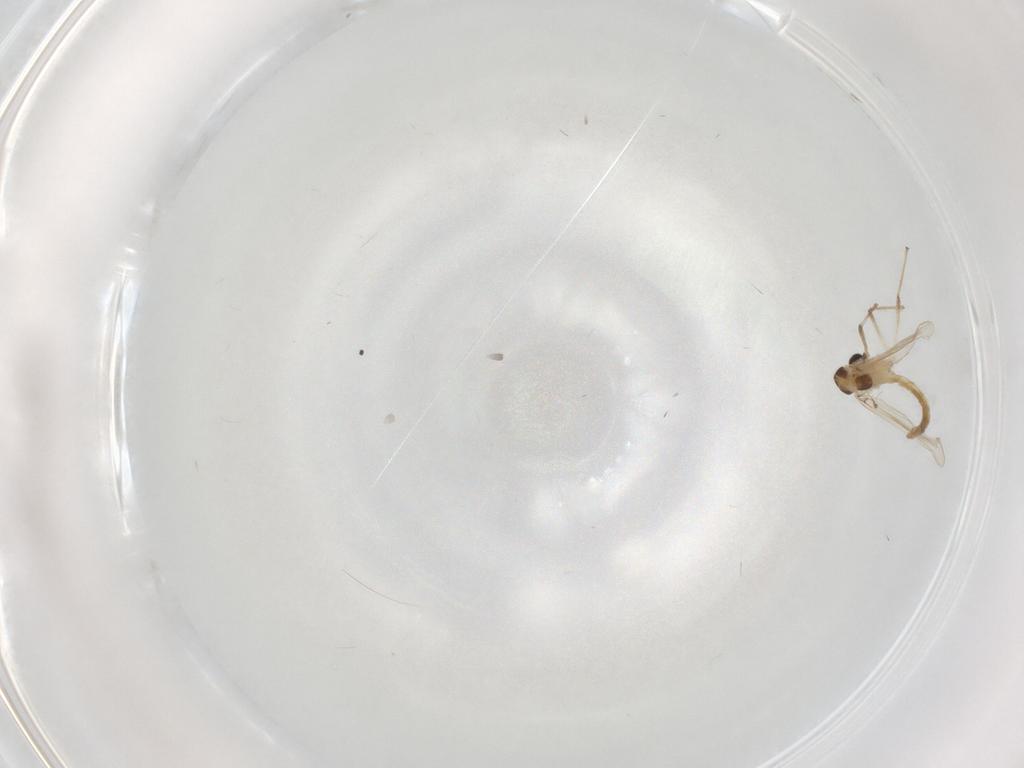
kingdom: Animalia
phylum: Arthropoda
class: Insecta
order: Diptera
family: Chironomidae
